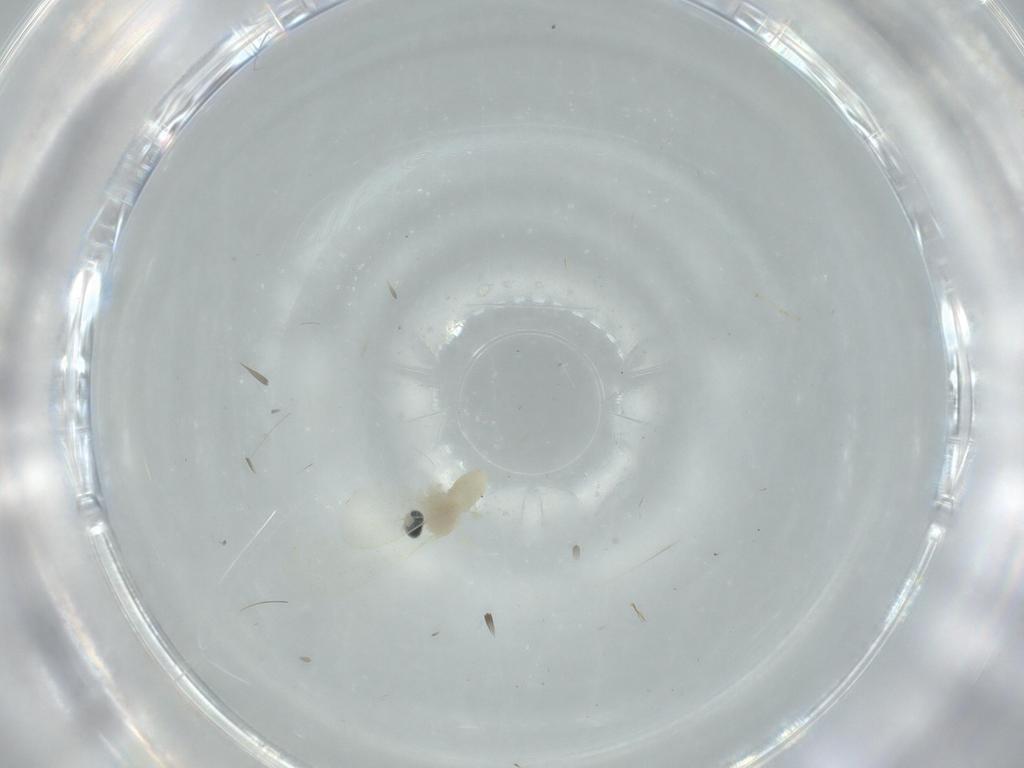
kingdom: Animalia
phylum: Arthropoda
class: Insecta
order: Diptera
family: Cecidomyiidae
